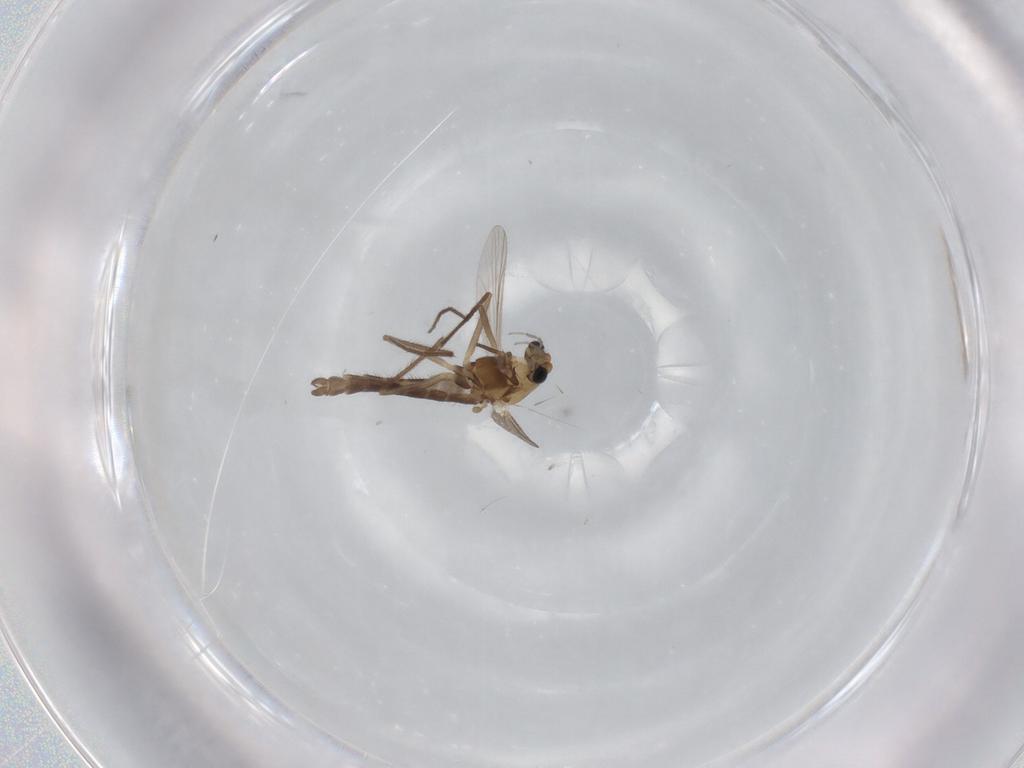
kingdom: Animalia
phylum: Arthropoda
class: Insecta
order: Diptera
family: Chironomidae
